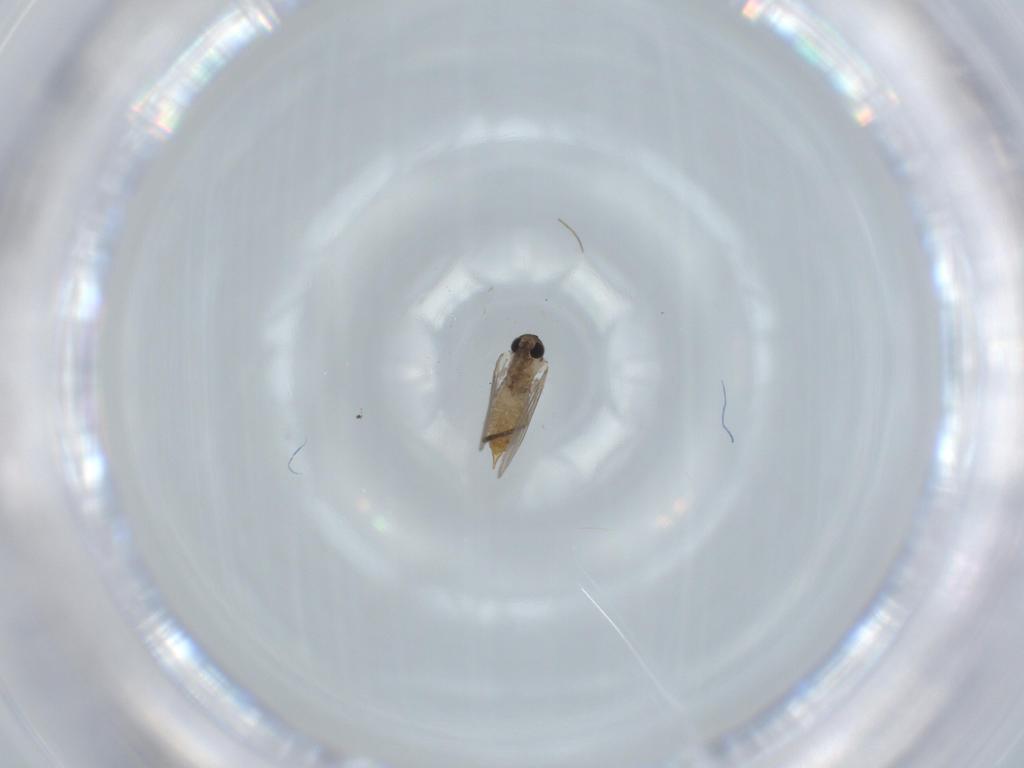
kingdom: Animalia
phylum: Arthropoda
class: Insecta
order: Diptera
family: Psychodidae
